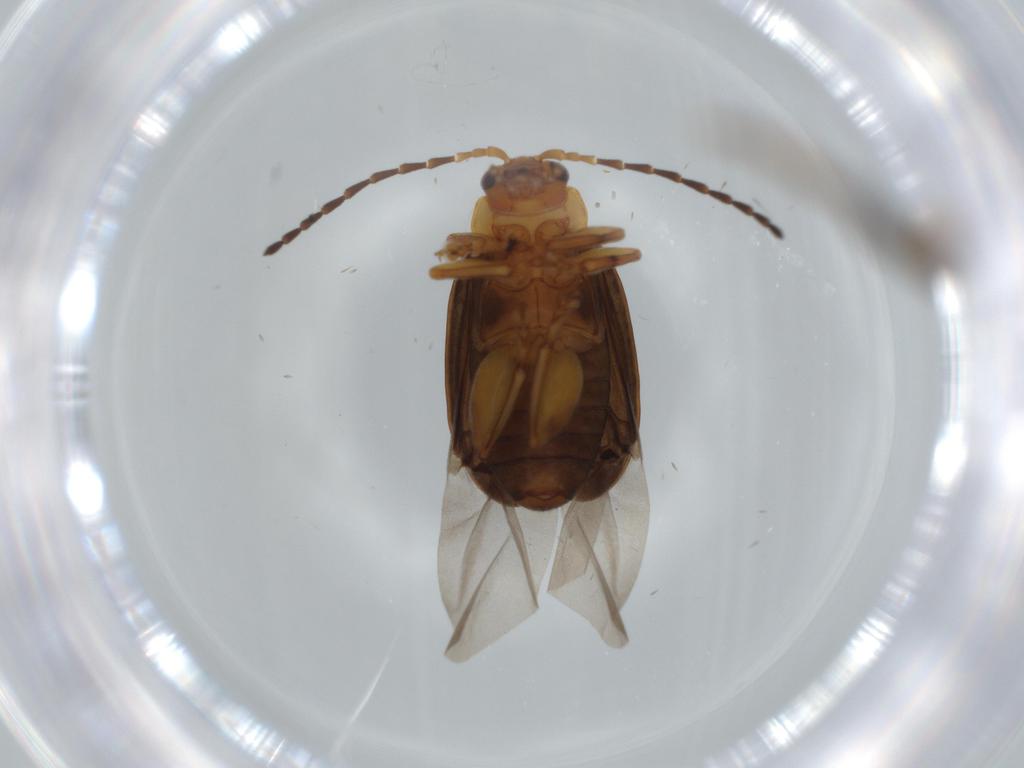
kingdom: Animalia
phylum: Arthropoda
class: Insecta
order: Coleoptera
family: Chrysomelidae
